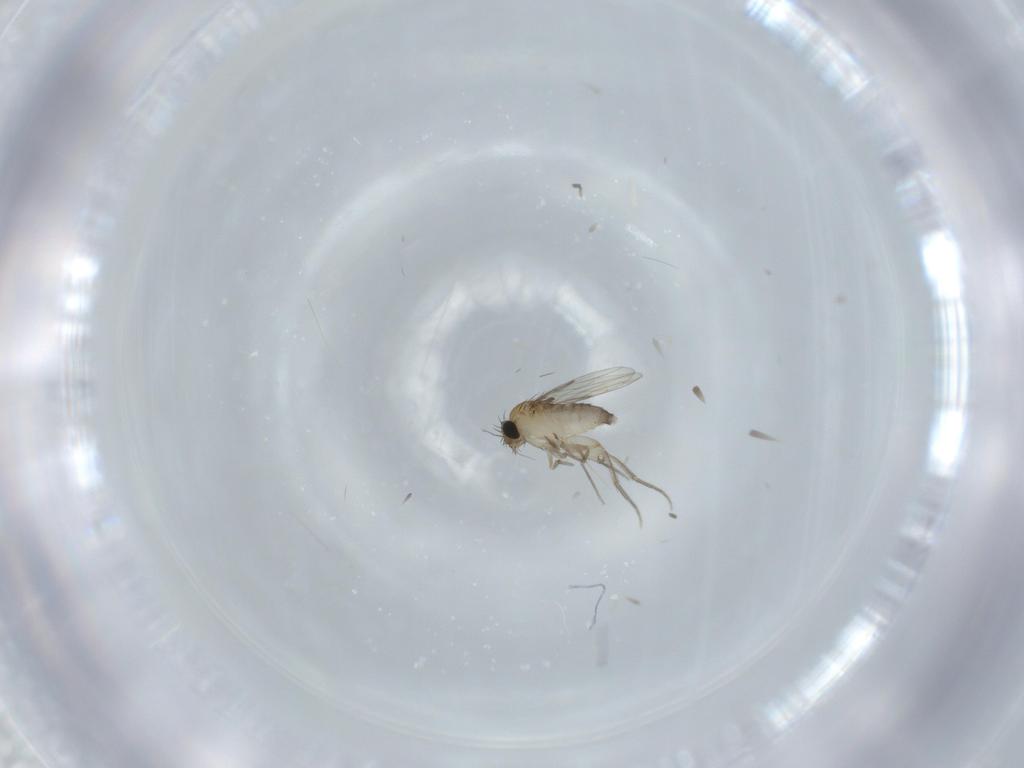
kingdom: Animalia
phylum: Arthropoda
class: Insecta
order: Diptera
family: Phoridae
